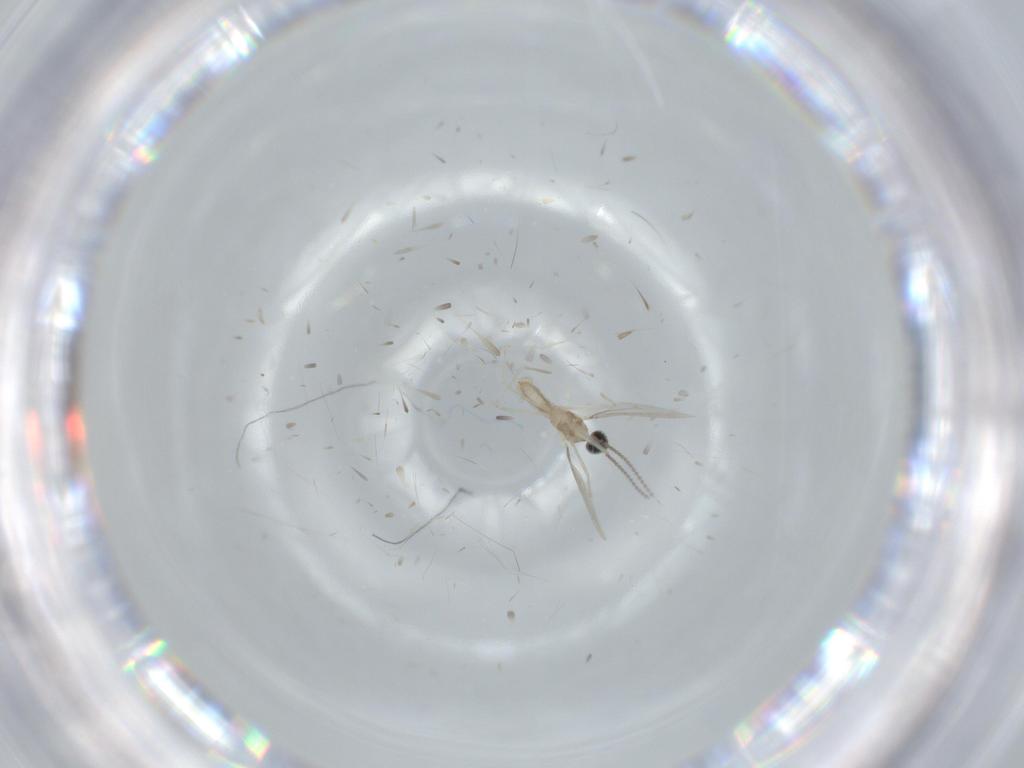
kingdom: Animalia
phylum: Arthropoda
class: Insecta
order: Diptera
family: Cecidomyiidae
